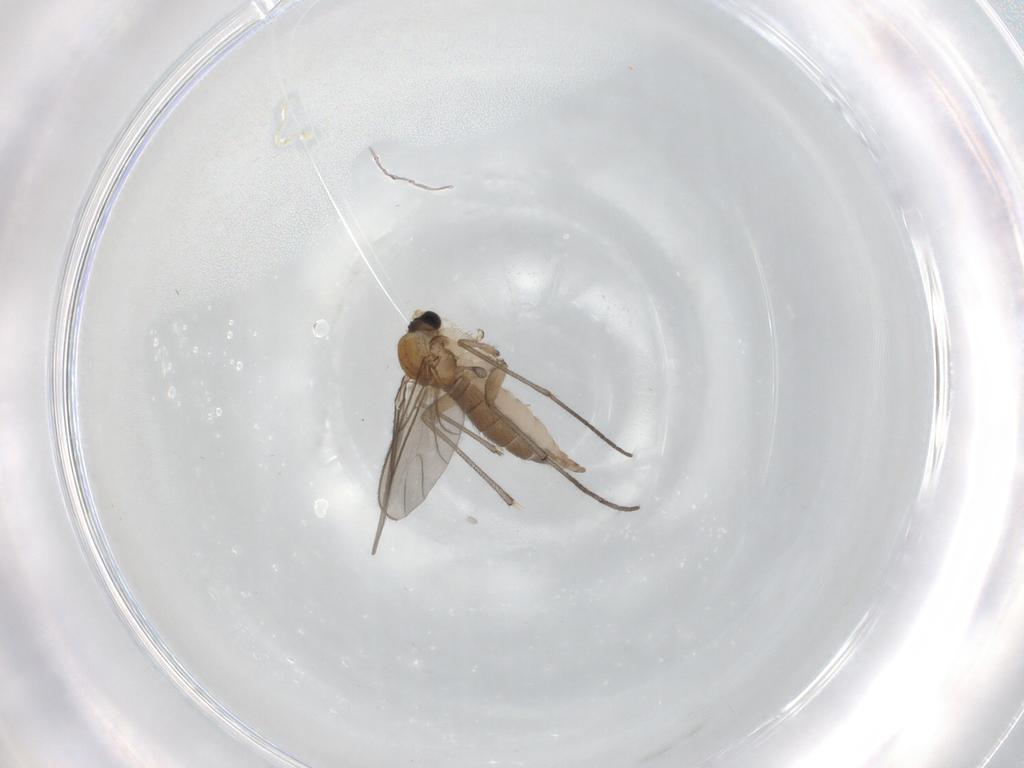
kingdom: Animalia
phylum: Arthropoda
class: Insecta
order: Diptera
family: Sciaridae
